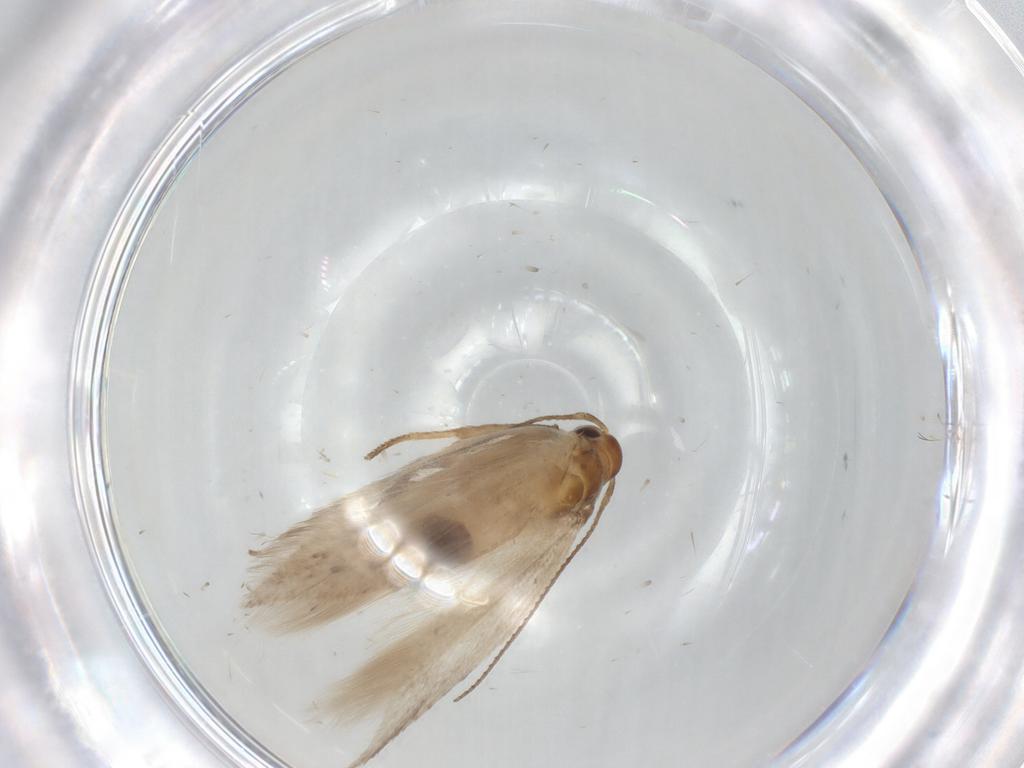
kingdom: Animalia
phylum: Arthropoda
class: Insecta
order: Lepidoptera
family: Gelechiidae
